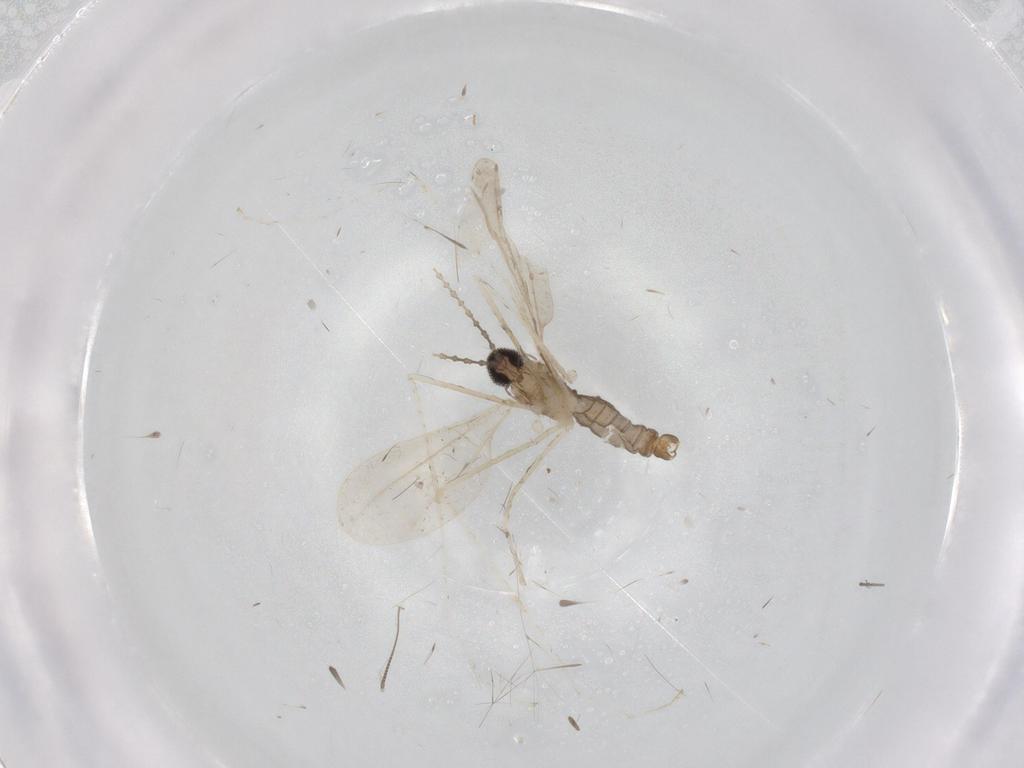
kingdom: Animalia
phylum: Arthropoda
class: Insecta
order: Diptera
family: Cecidomyiidae
